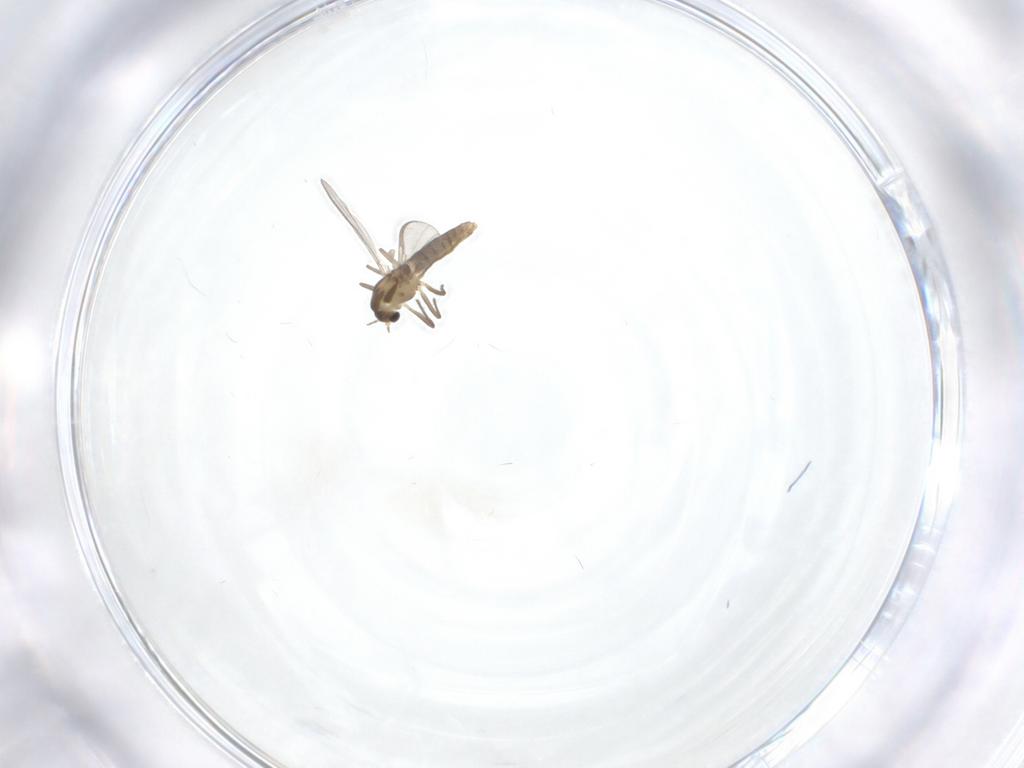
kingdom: Animalia
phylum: Arthropoda
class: Insecta
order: Diptera
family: Chironomidae
